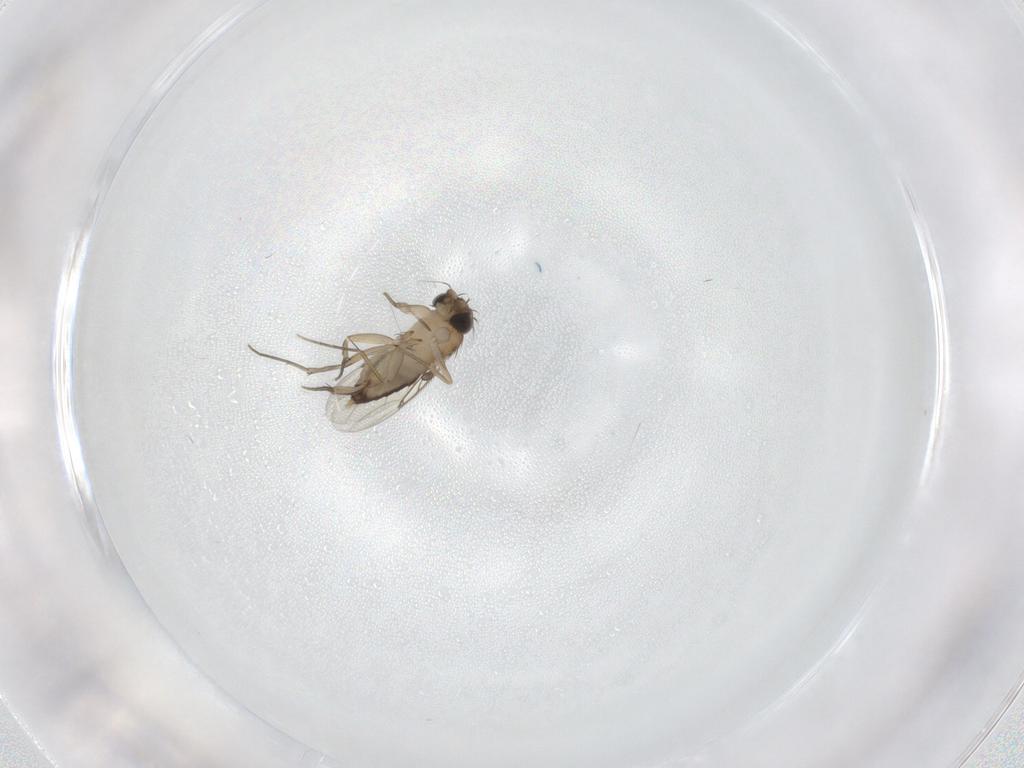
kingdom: Animalia
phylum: Arthropoda
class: Insecta
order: Diptera
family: Phoridae
